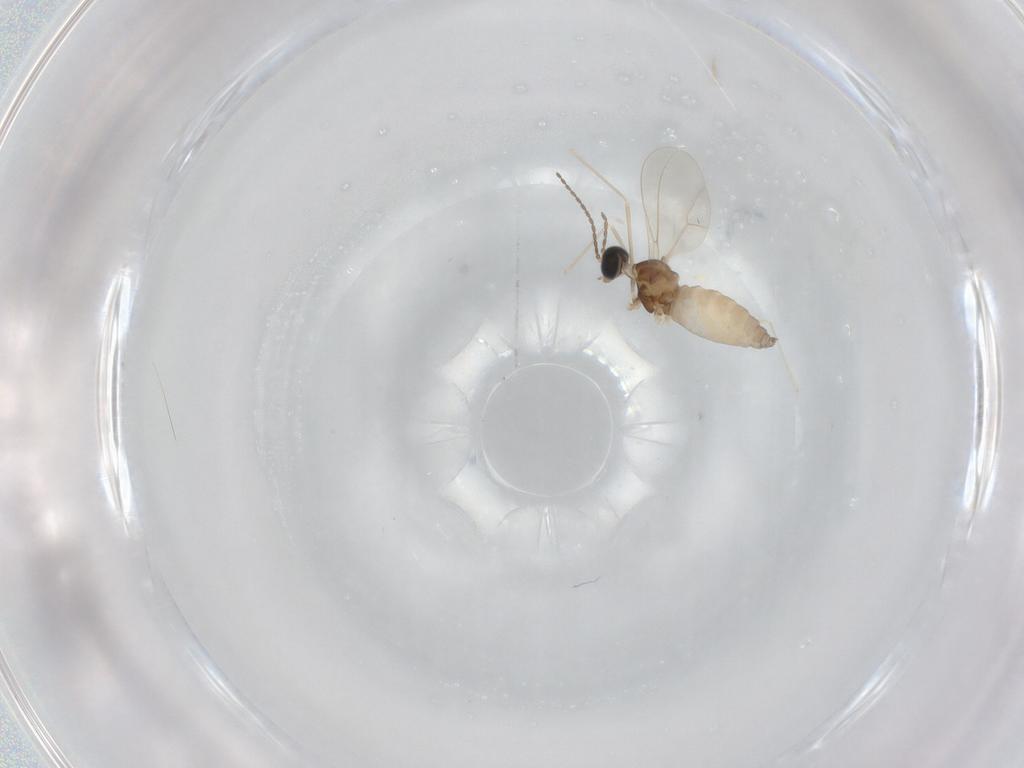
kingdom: Animalia
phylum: Arthropoda
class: Insecta
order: Diptera
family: Cecidomyiidae
